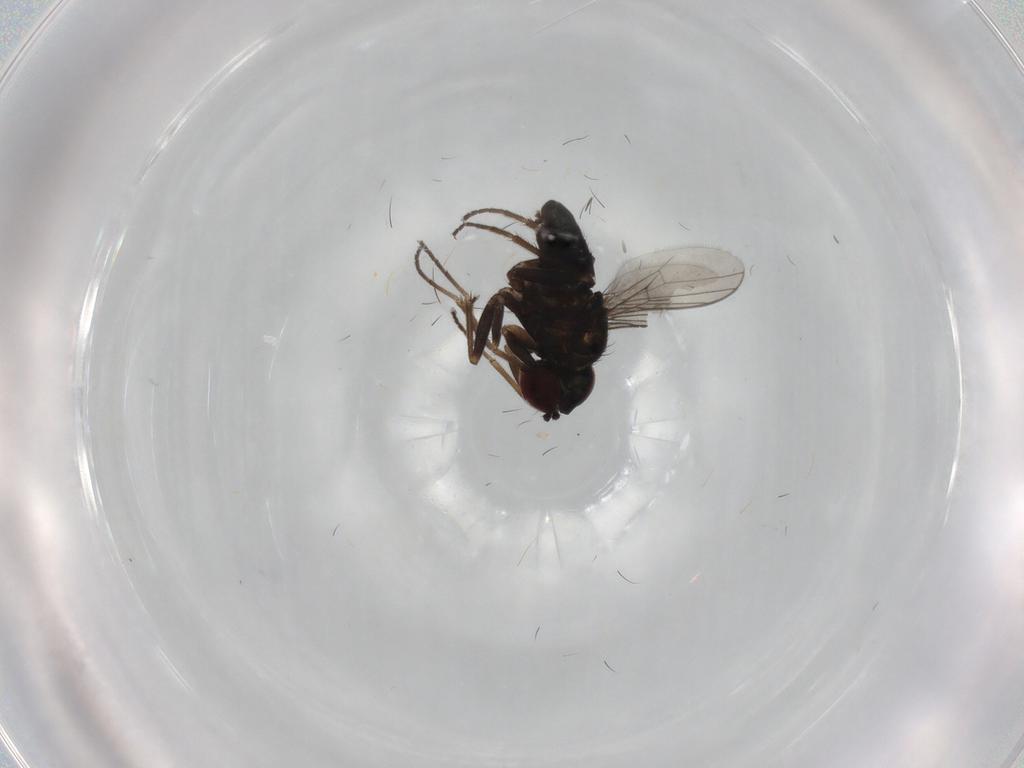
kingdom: Animalia
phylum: Arthropoda
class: Insecta
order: Diptera
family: Dolichopodidae
